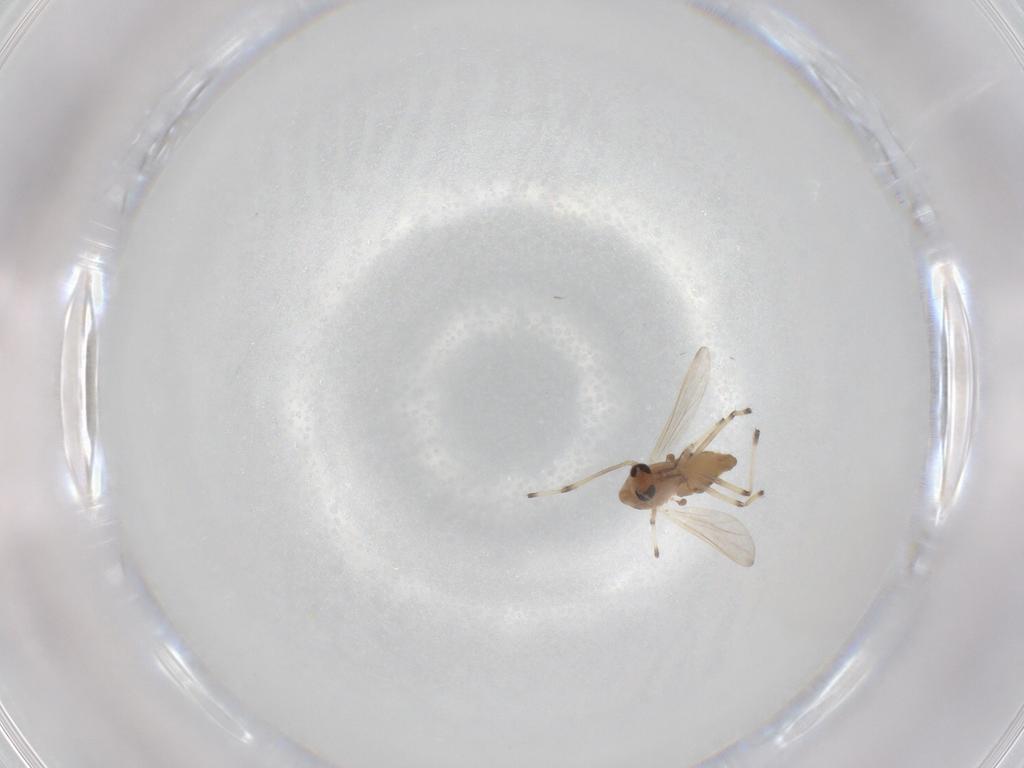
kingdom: Animalia
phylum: Arthropoda
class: Insecta
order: Diptera
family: Chironomidae
